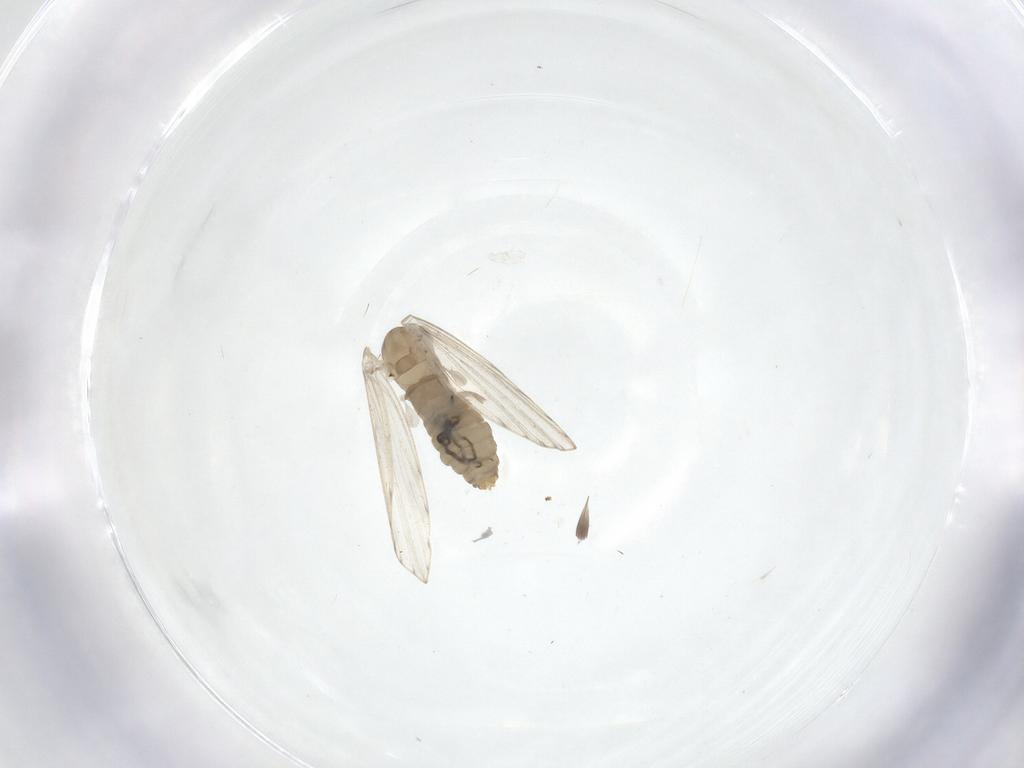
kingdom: Animalia
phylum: Arthropoda
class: Insecta
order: Diptera
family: Psychodidae
